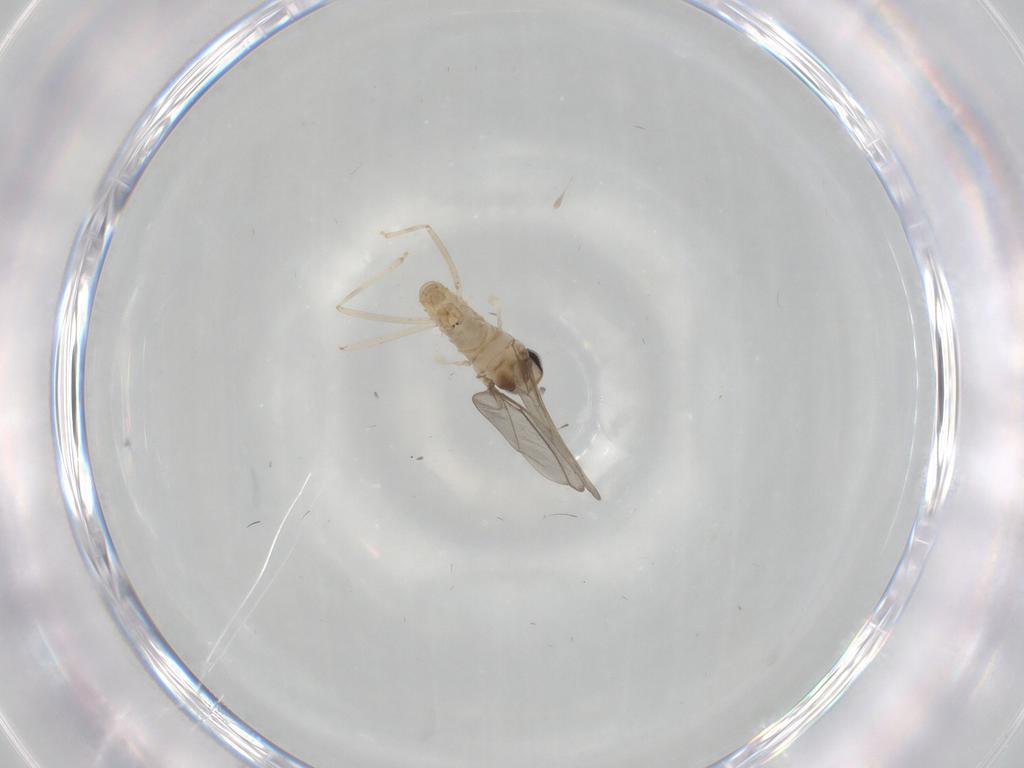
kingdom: Animalia
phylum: Arthropoda
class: Insecta
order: Diptera
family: Cecidomyiidae
